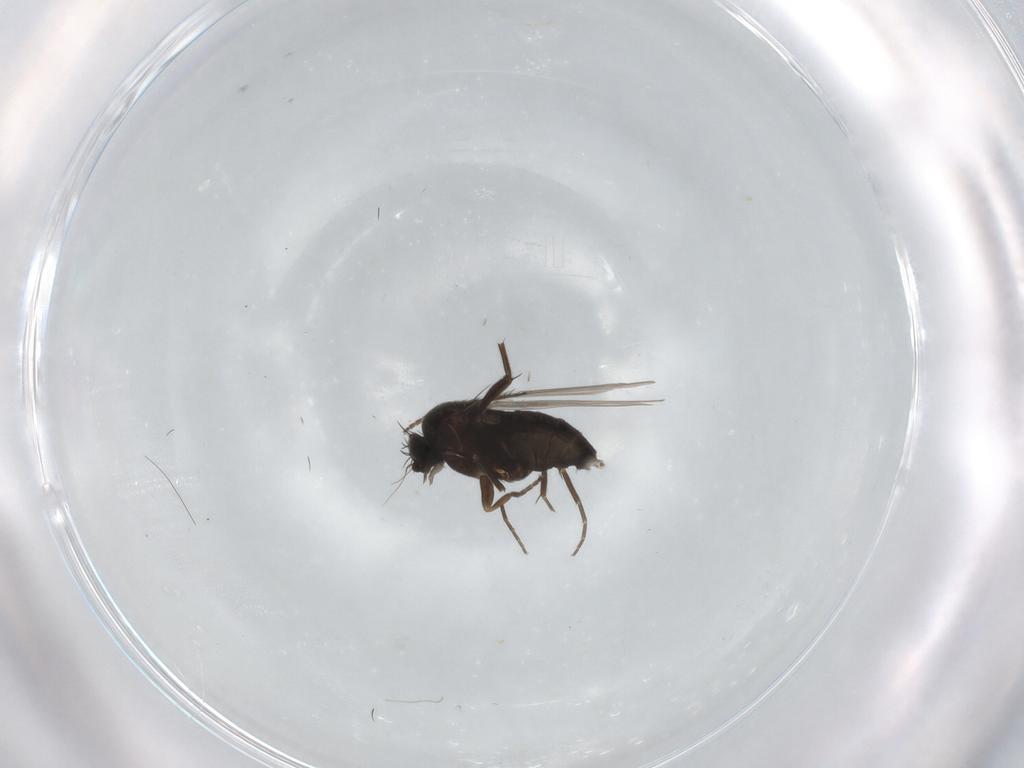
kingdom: Animalia
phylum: Arthropoda
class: Insecta
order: Diptera
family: Phoridae
